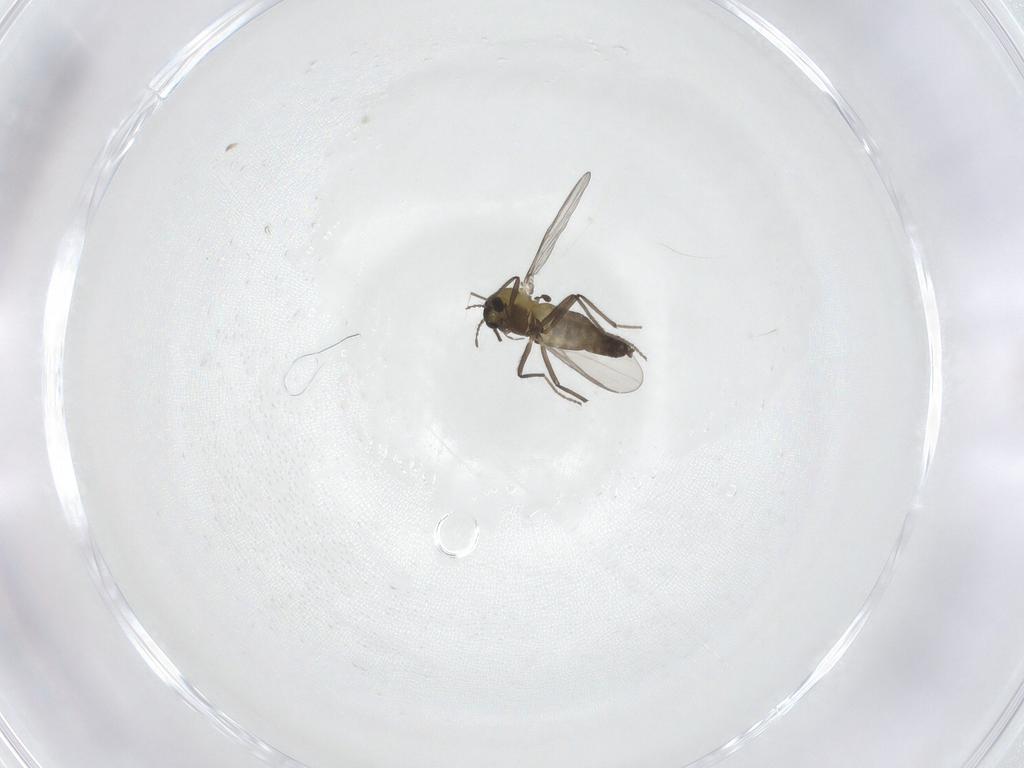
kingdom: Animalia
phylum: Arthropoda
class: Insecta
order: Diptera
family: Chironomidae
